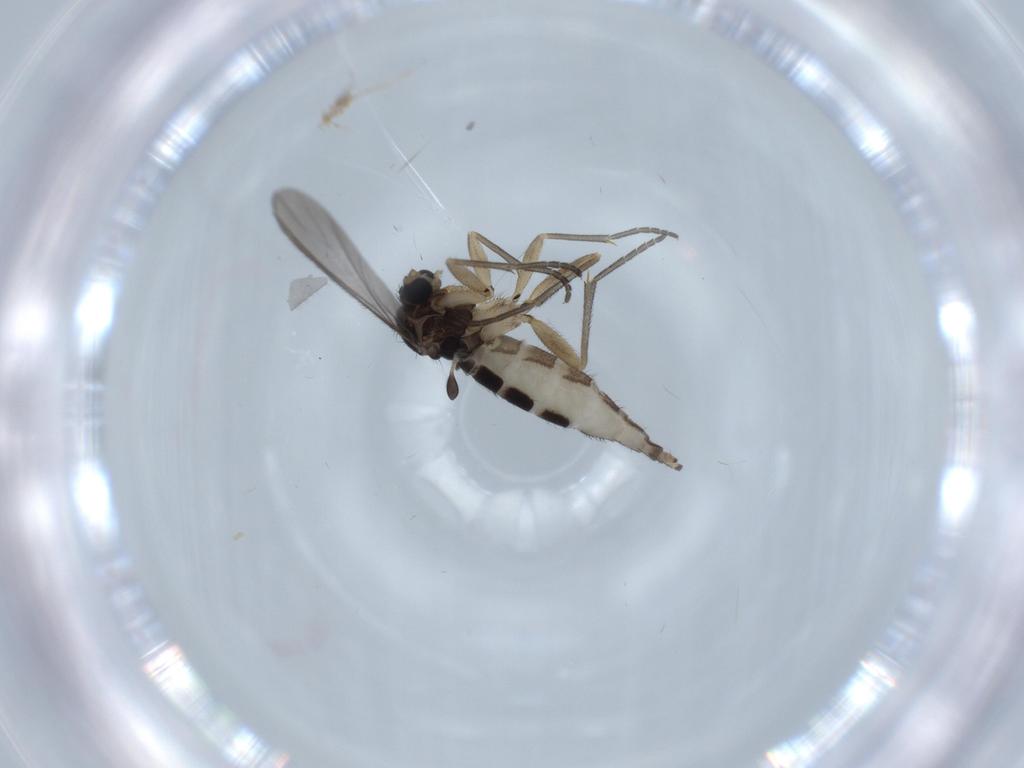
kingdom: Animalia
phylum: Arthropoda
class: Insecta
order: Diptera
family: Sciaridae
